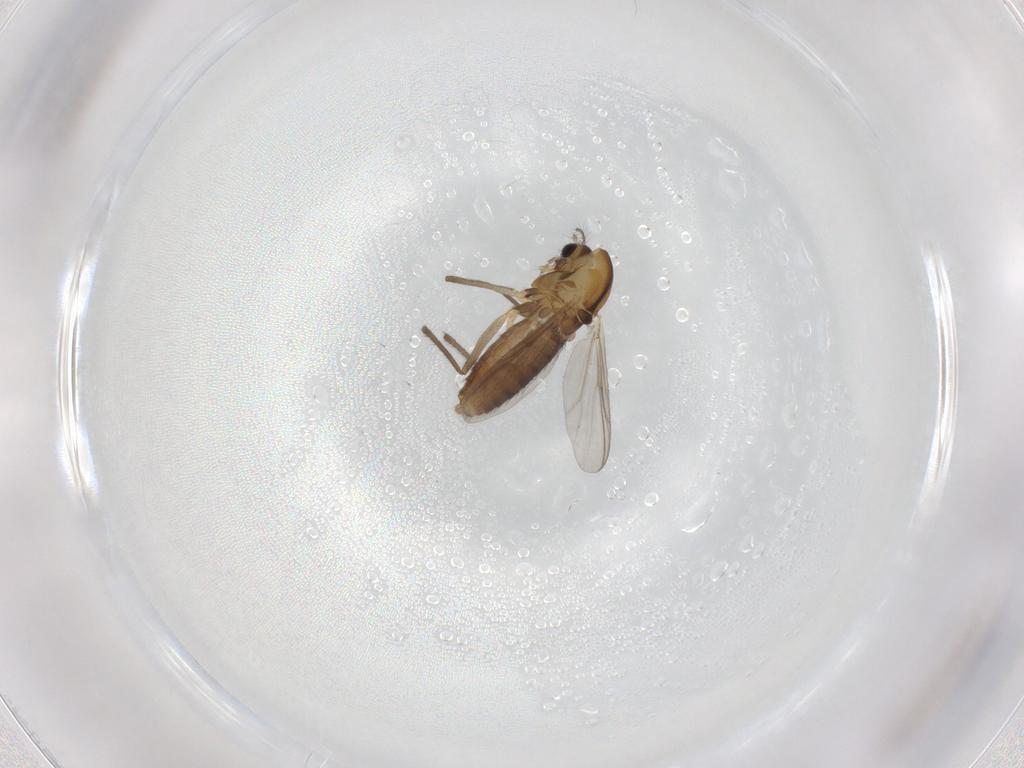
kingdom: Animalia
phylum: Arthropoda
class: Insecta
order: Diptera
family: Chironomidae
